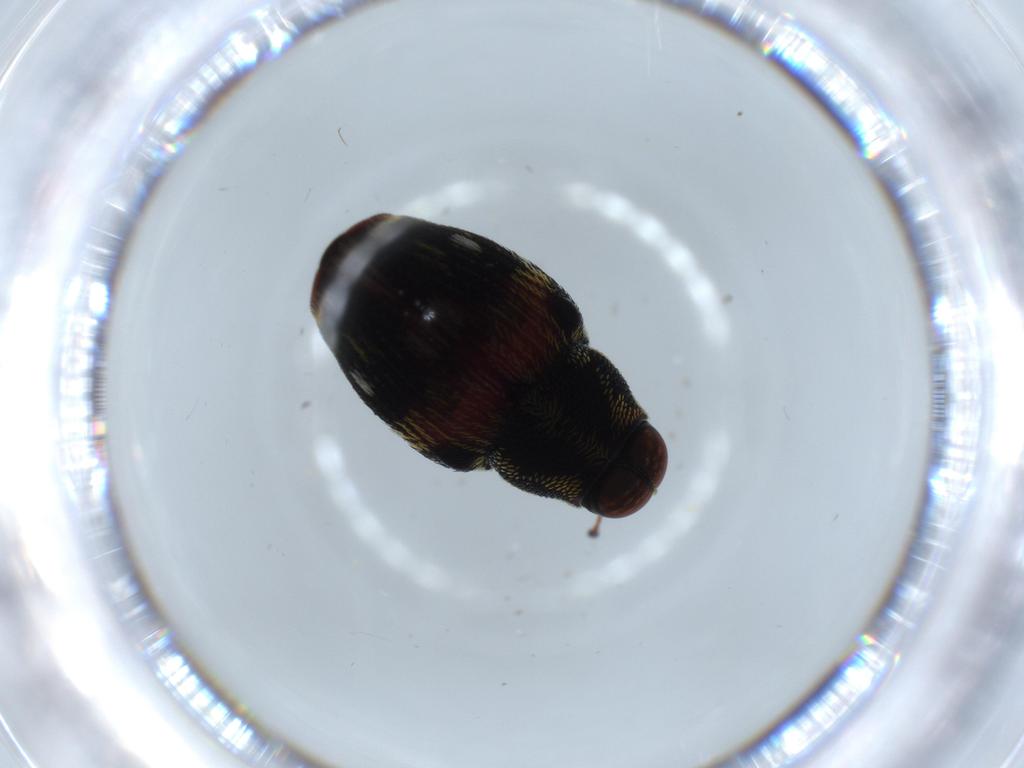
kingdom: Animalia
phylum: Arthropoda
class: Insecta
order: Coleoptera
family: Curculionidae
